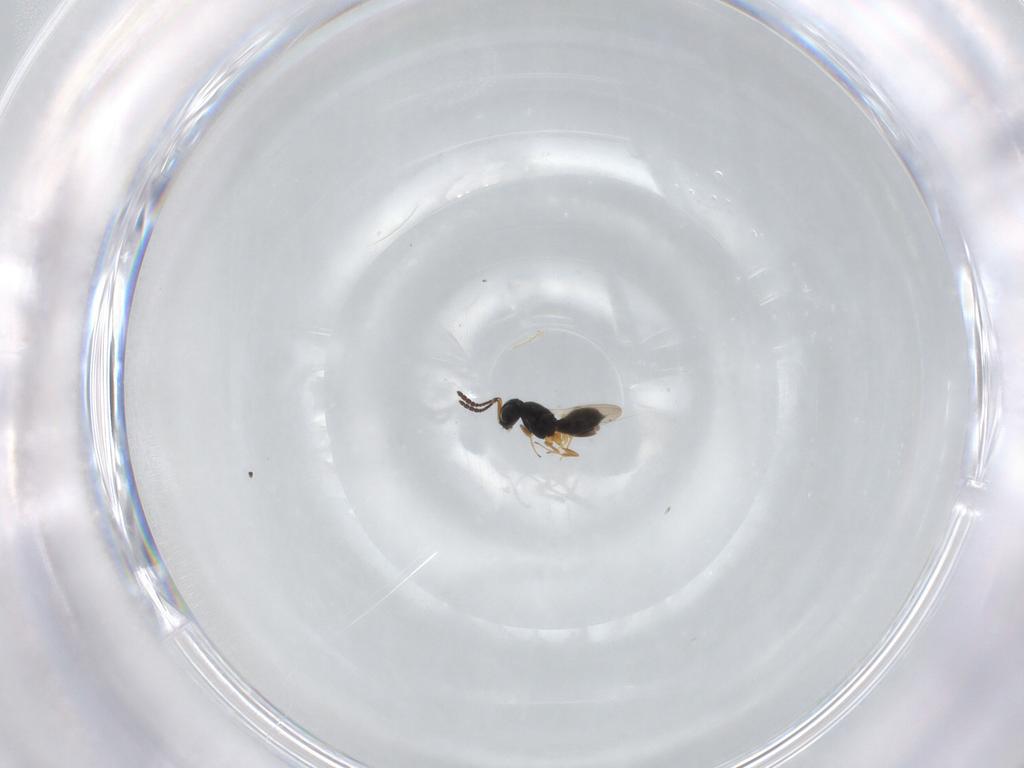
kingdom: Animalia
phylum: Arthropoda
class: Insecta
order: Hymenoptera
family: Scelionidae
